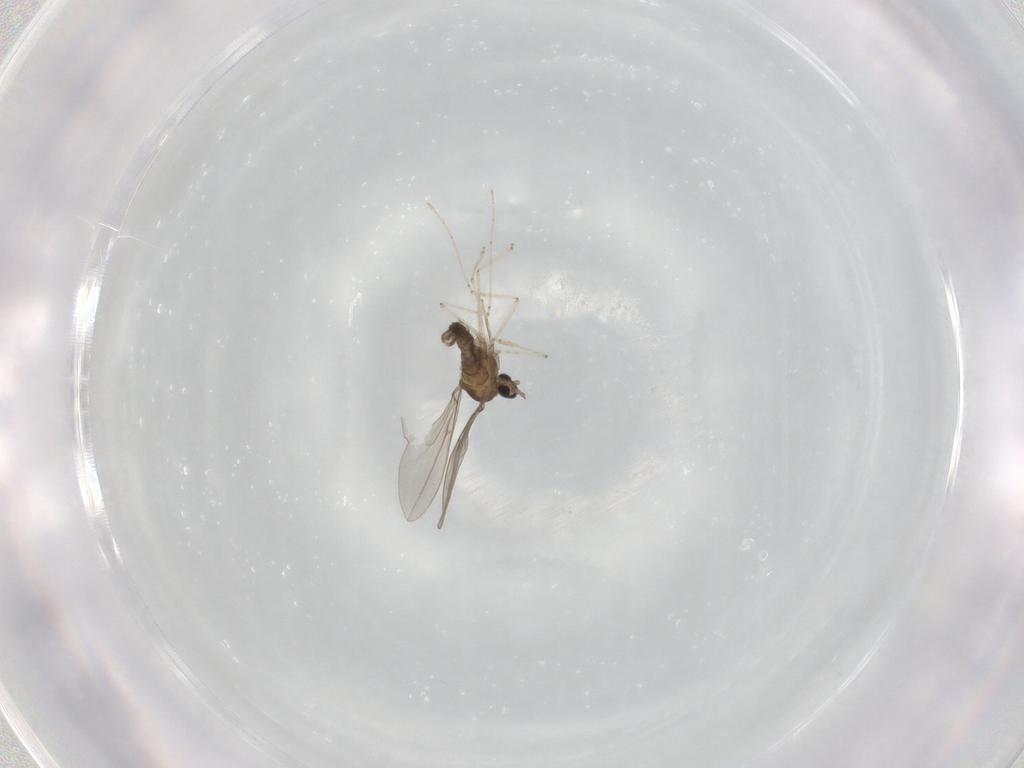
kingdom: Animalia
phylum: Arthropoda
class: Insecta
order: Diptera
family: Cecidomyiidae
